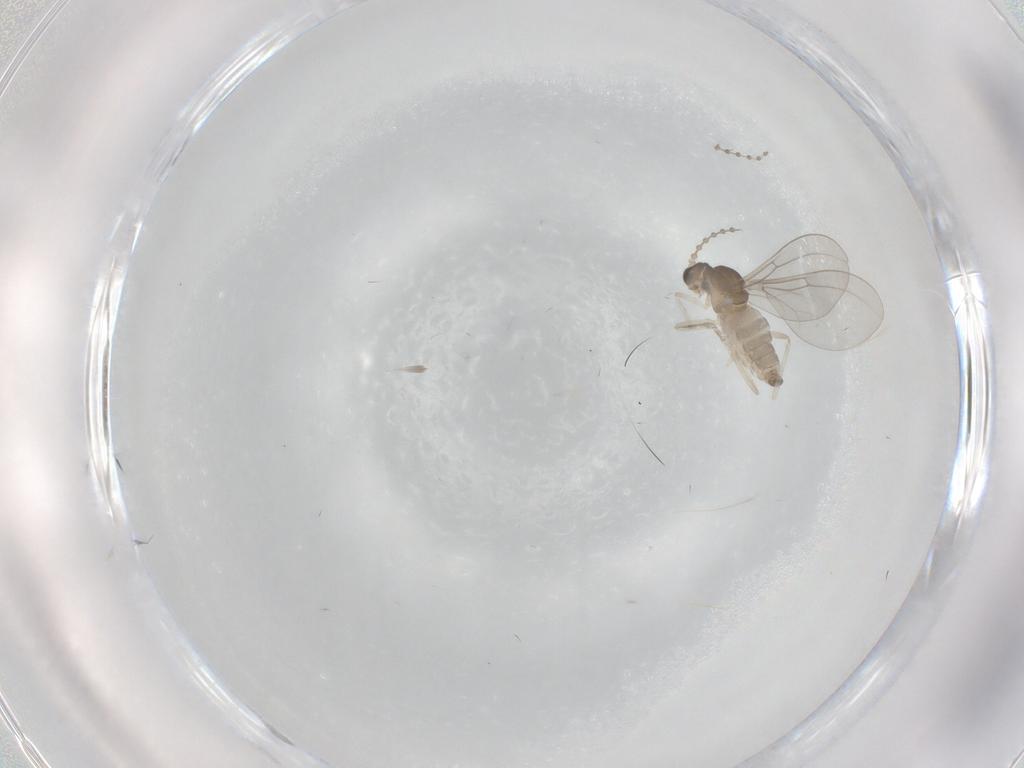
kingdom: Animalia
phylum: Arthropoda
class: Insecta
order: Diptera
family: Cecidomyiidae
